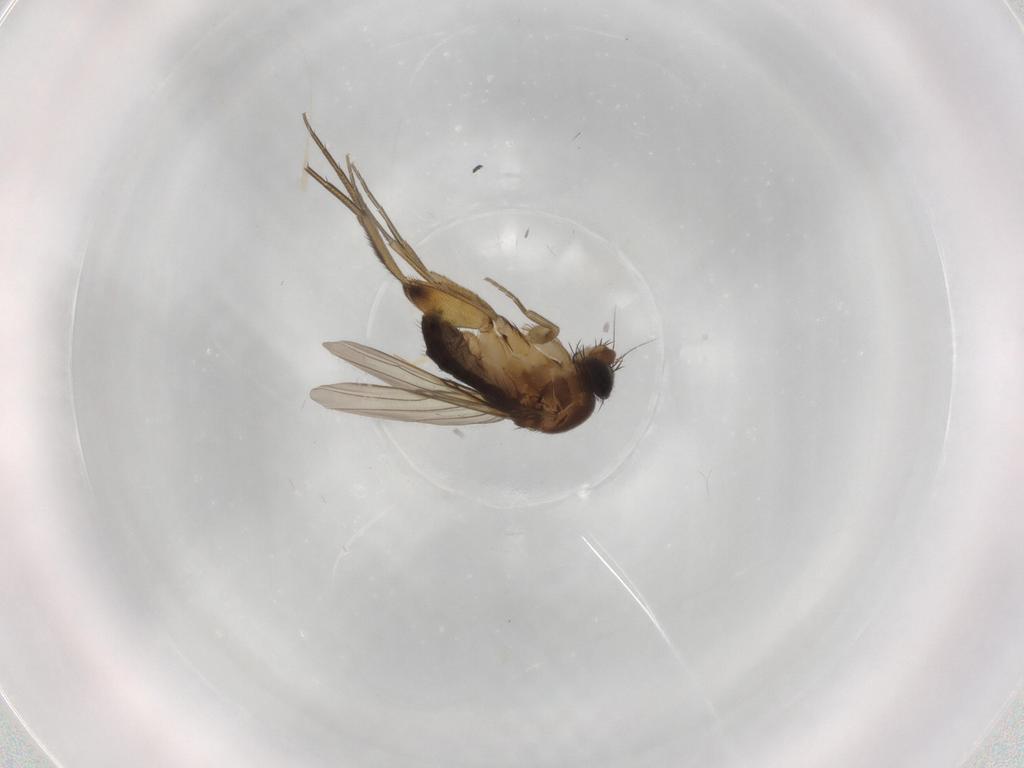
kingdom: Animalia
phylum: Arthropoda
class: Insecta
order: Diptera
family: Phoridae
